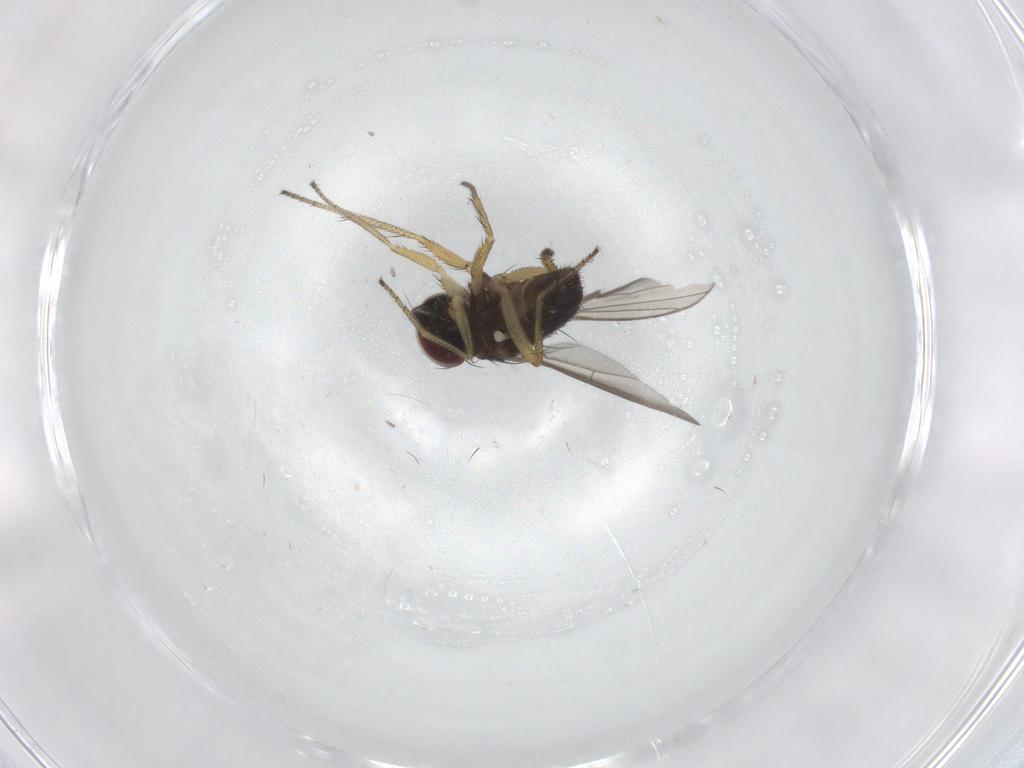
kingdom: Animalia
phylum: Arthropoda
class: Insecta
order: Diptera
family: Dolichopodidae
